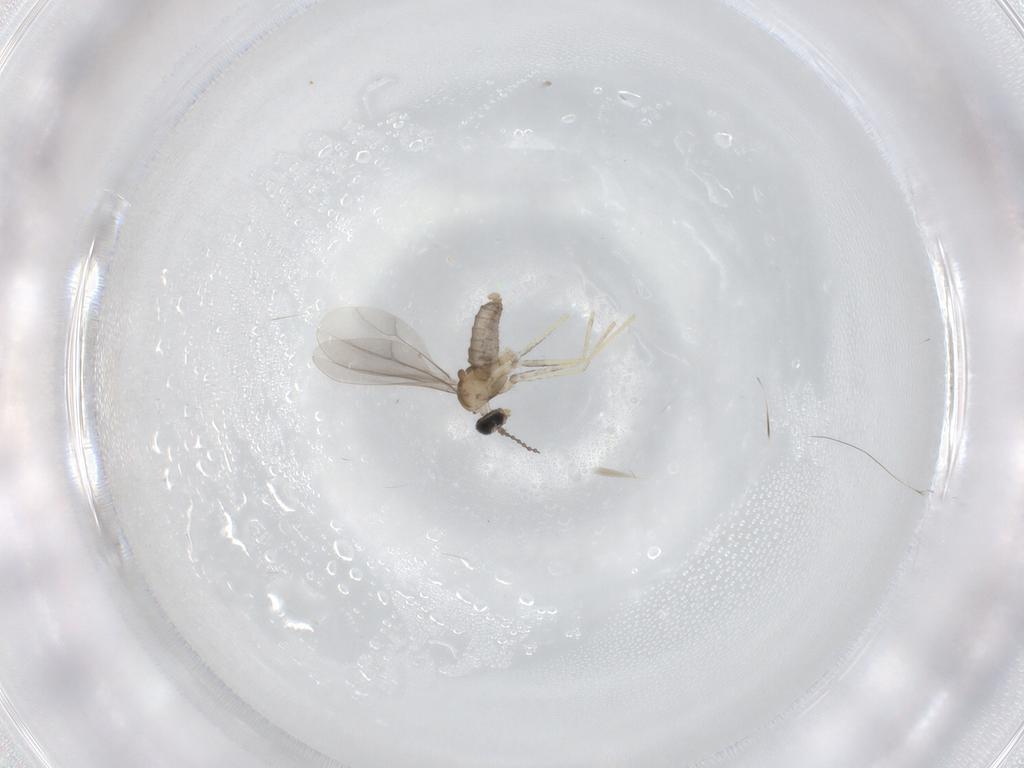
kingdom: Animalia
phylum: Arthropoda
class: Insecta
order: Diptera
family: Cecidomyiidae
